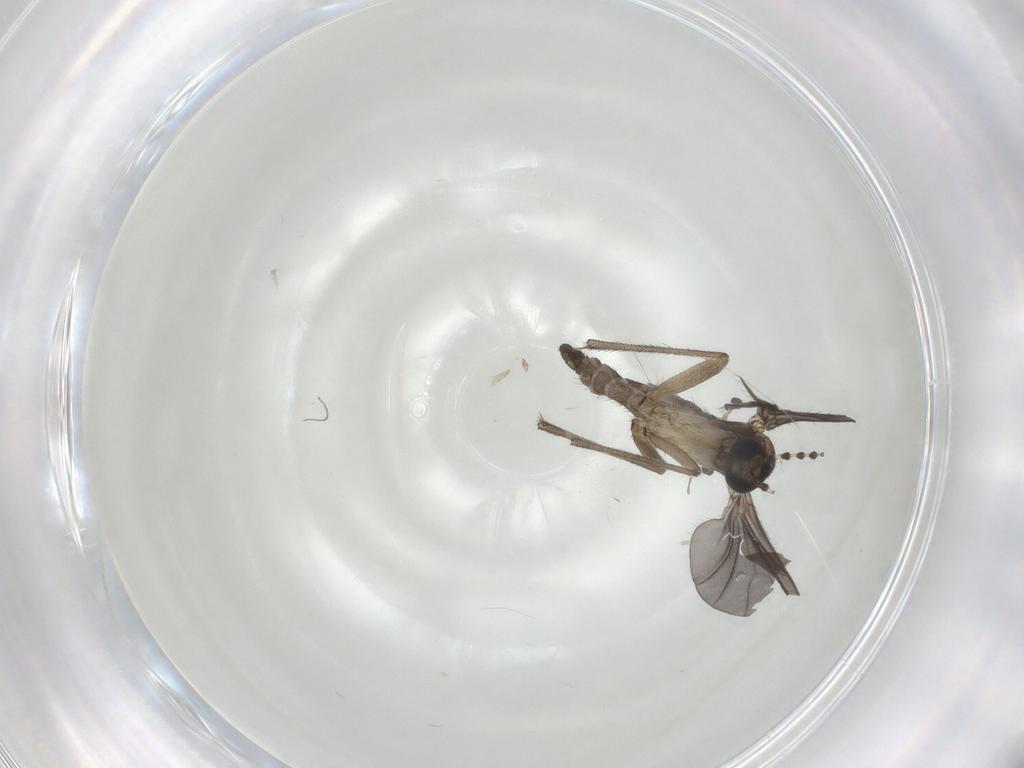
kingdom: Animalia
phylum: Arthropoda
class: Insecta
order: Diptera
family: Sciaridae
